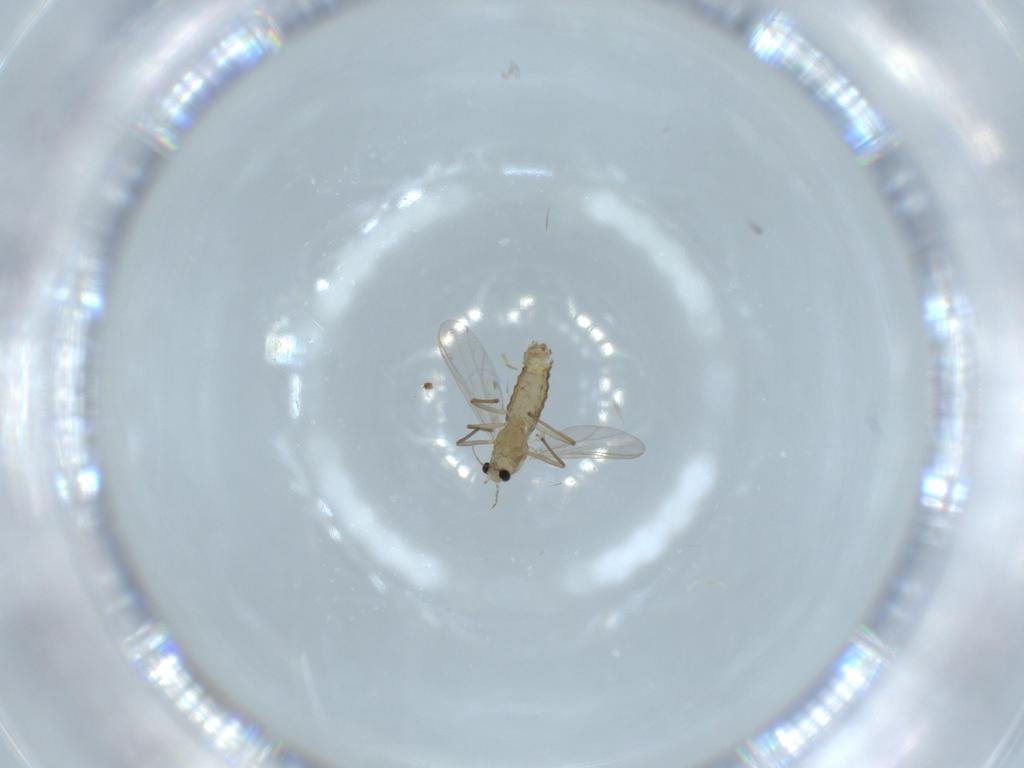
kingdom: Animalia
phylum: Arthropoda
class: Insecta
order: Diptera
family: Chironomidae
